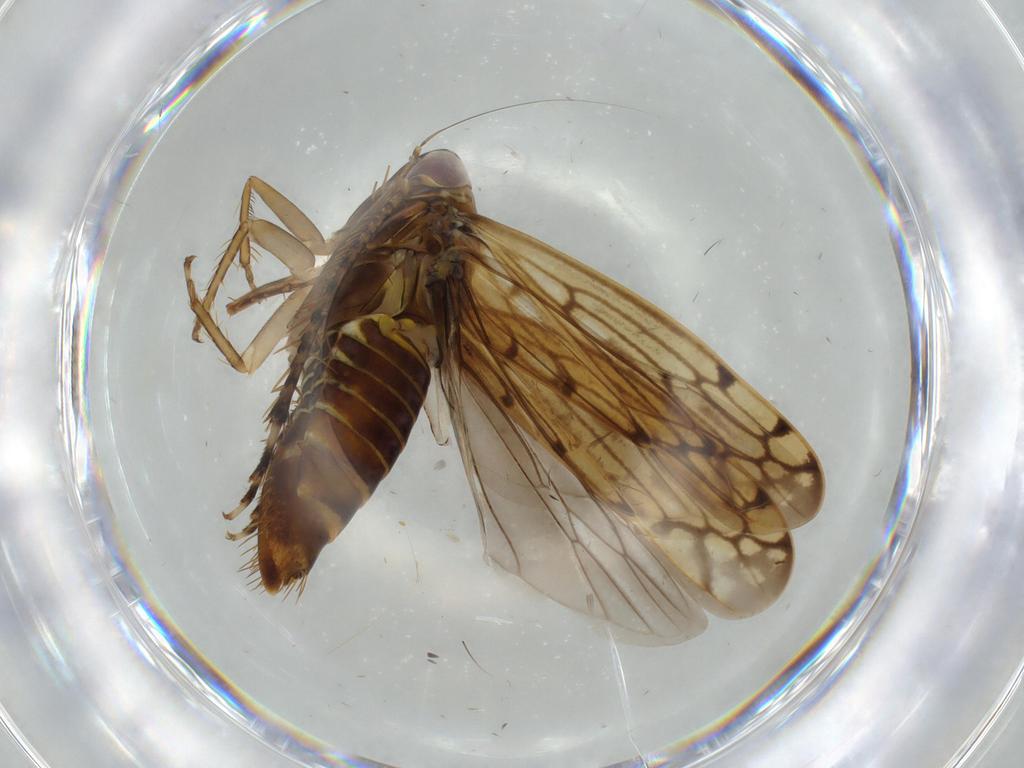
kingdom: Animalia
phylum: Arthropoda
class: Insecta
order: Hemiptera
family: Cicadellidae
